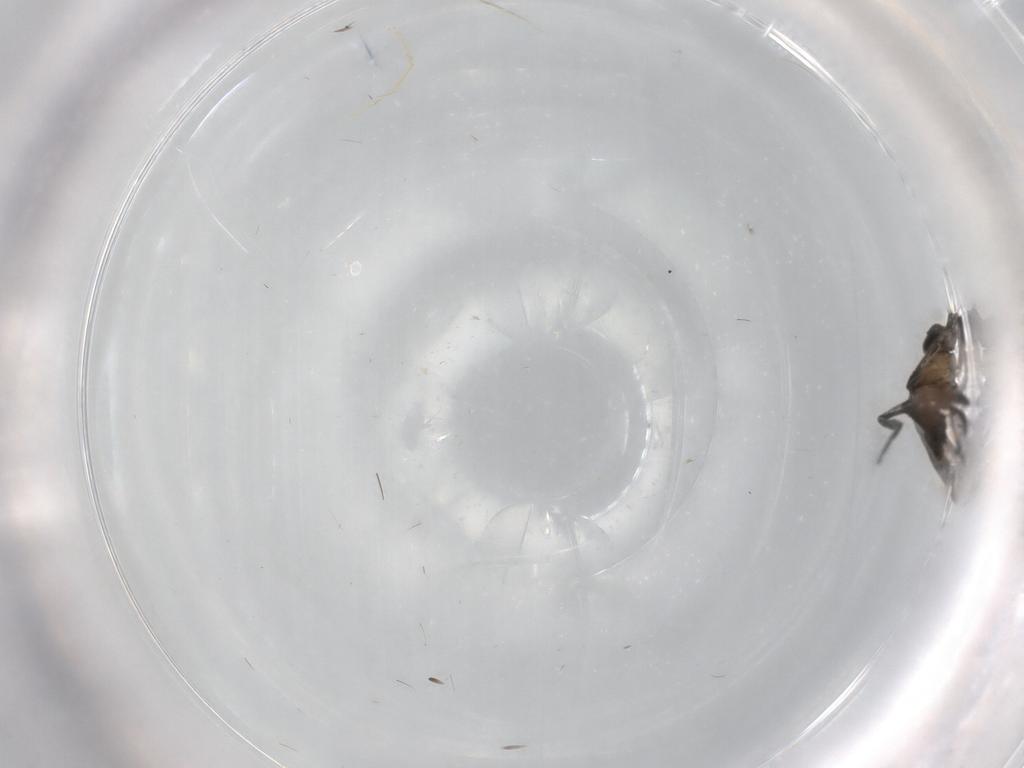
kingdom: Animalia
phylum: Arthropoda
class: Insecta
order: Diptera
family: Phoridae
